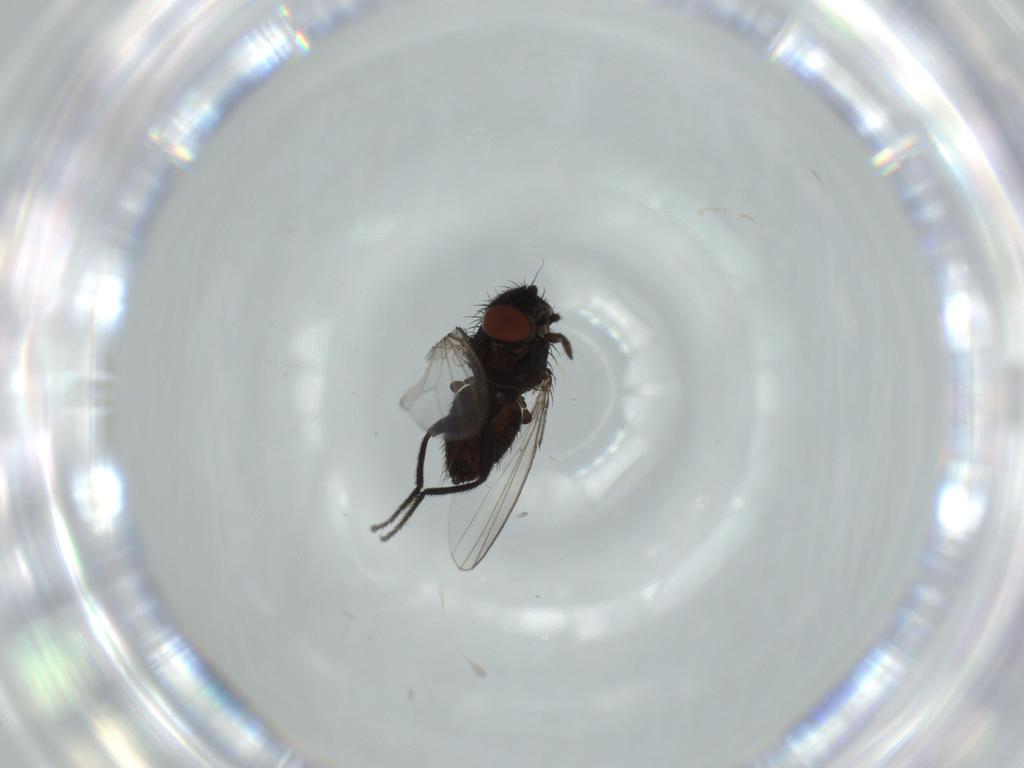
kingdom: Animalia
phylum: Arthropoda
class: Insecta
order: Diptera
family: Milichiidae
